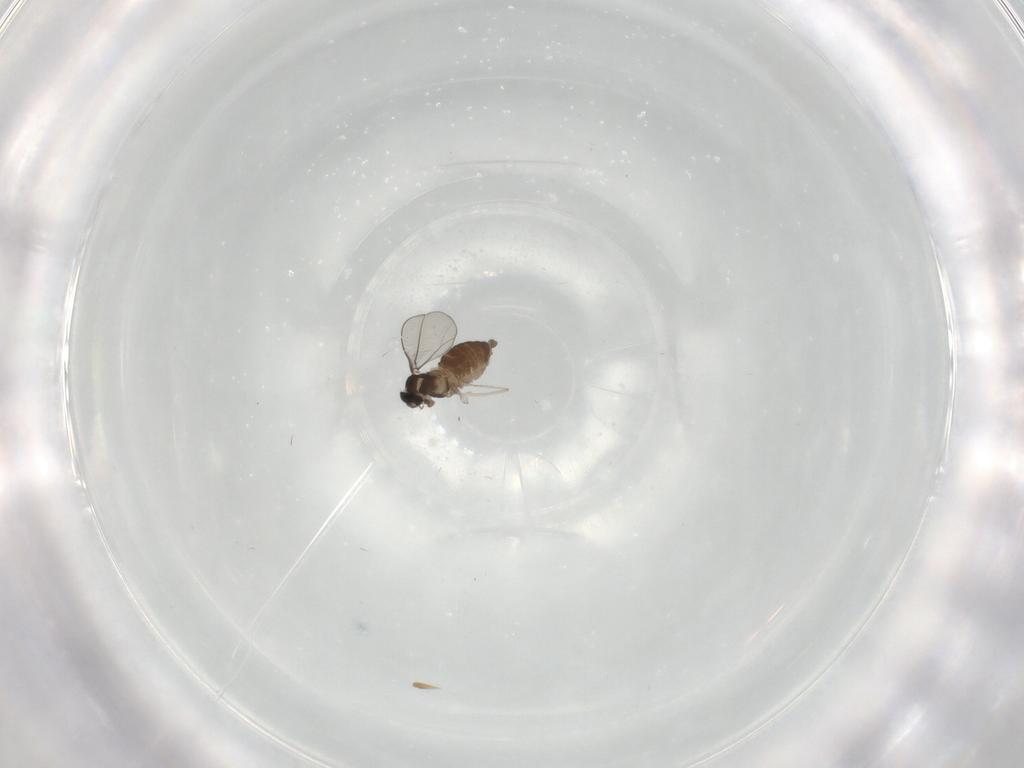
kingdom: Animalia
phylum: Arthropoda
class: Insecta
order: Diptera
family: Cecidomyiidae
